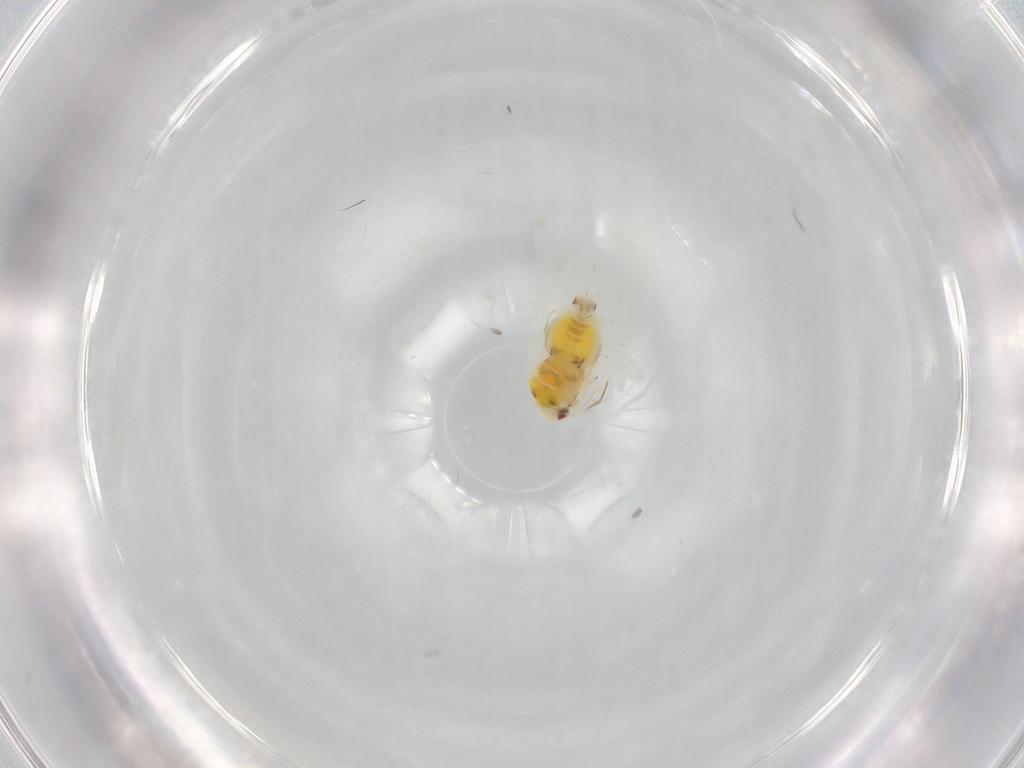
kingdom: Animalia
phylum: Arthropoda
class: Insecta
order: Hemiptera
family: Aleyrodidae
